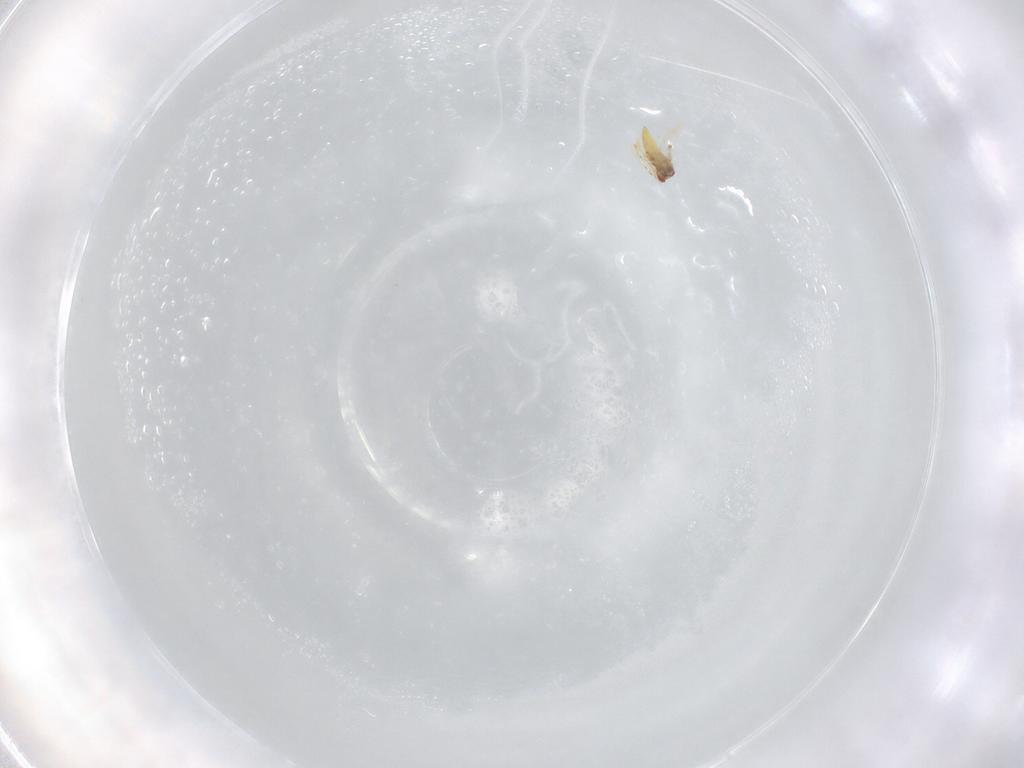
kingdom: Animalia
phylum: Arthropoda
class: Insecta
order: Hymenoptera
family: Trichogrammatidae
